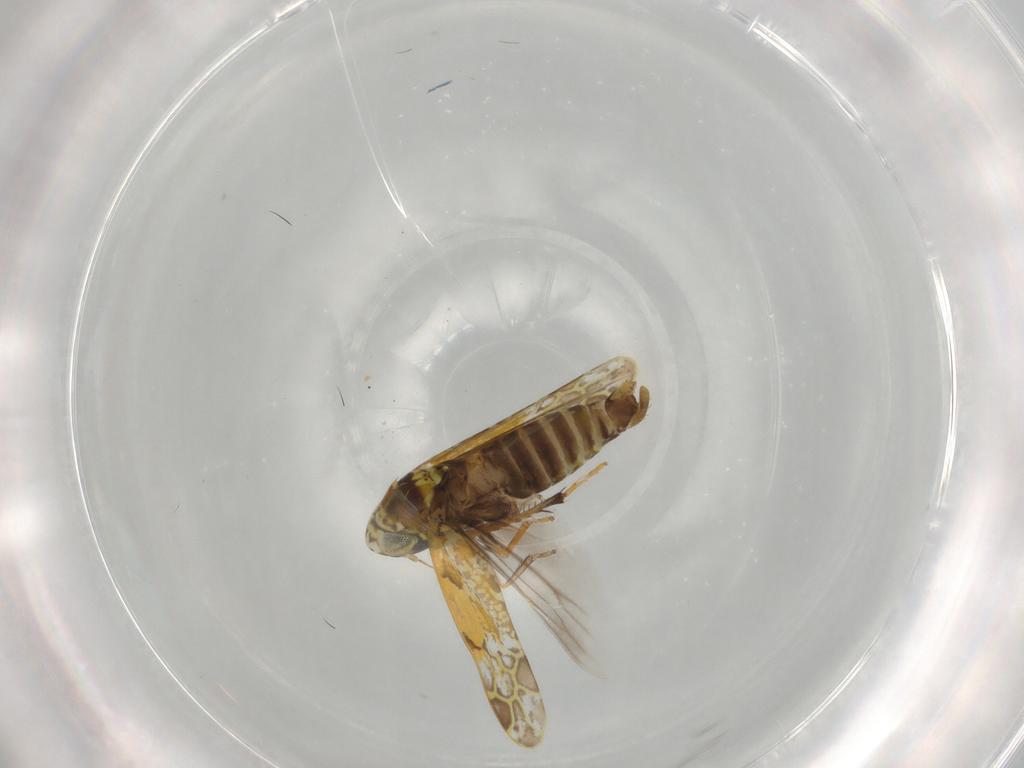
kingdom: Animalia
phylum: Arthropoda
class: Insecta
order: Hemiptera
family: Cicadellidae
